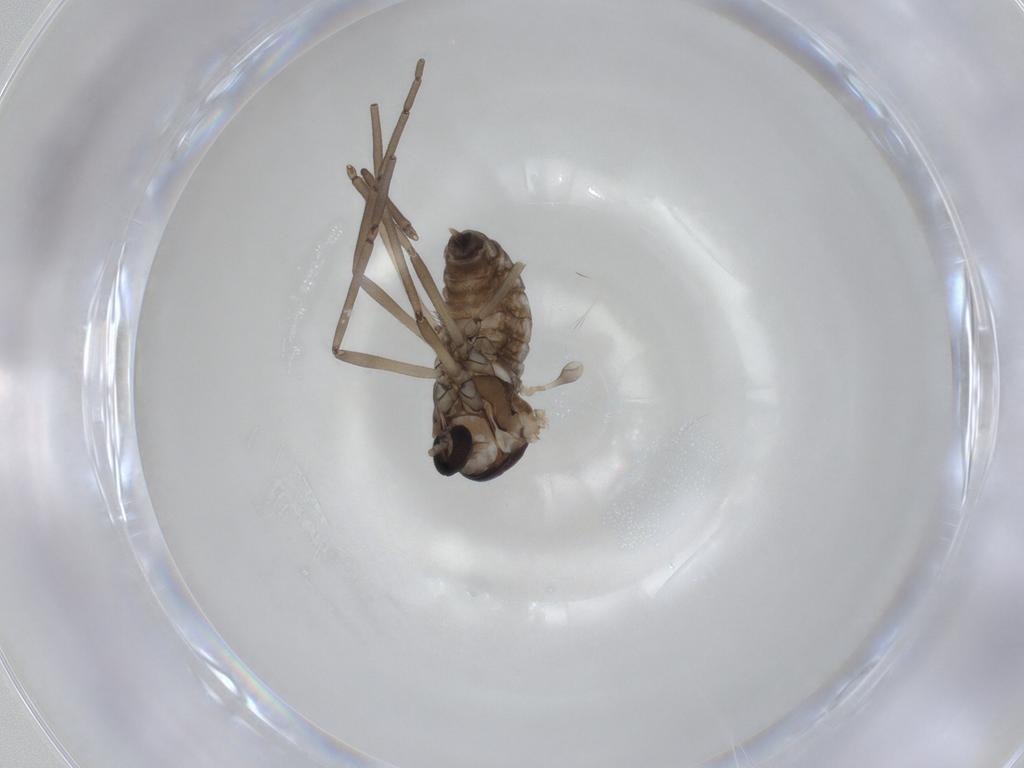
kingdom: Animalia
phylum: Arthropoda
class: Insecta
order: Diptera
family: Cecidomyiidae
